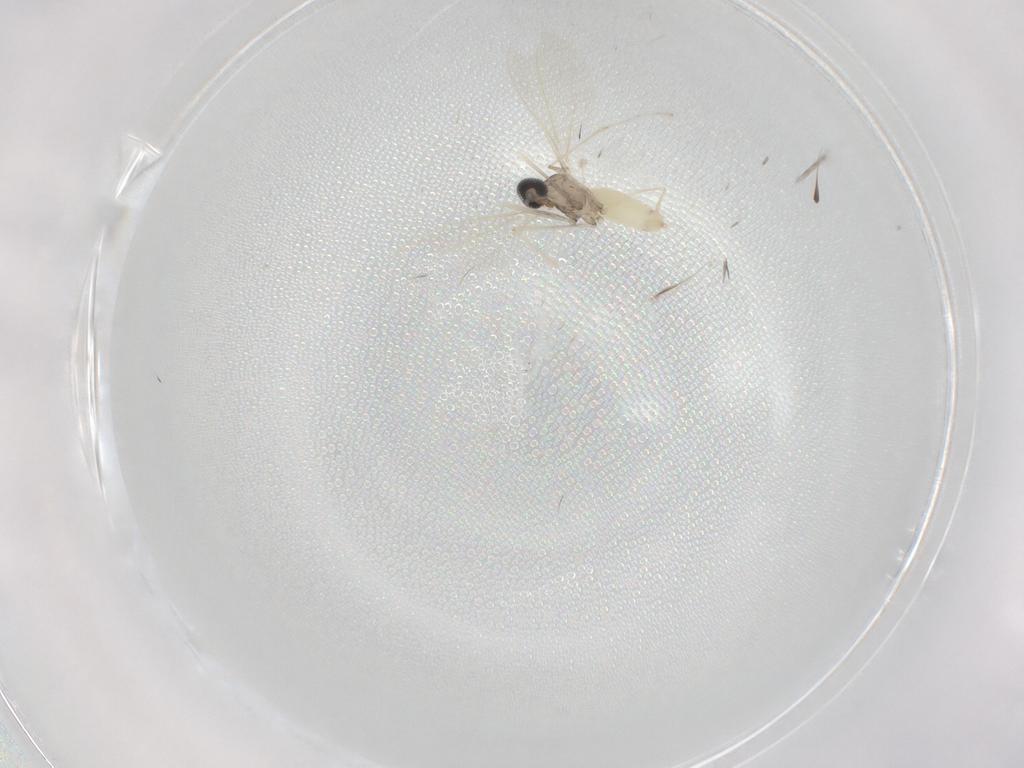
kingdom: Animalia
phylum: Arthropoda
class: Insecta
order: Diptera
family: Cecidomyiidae
